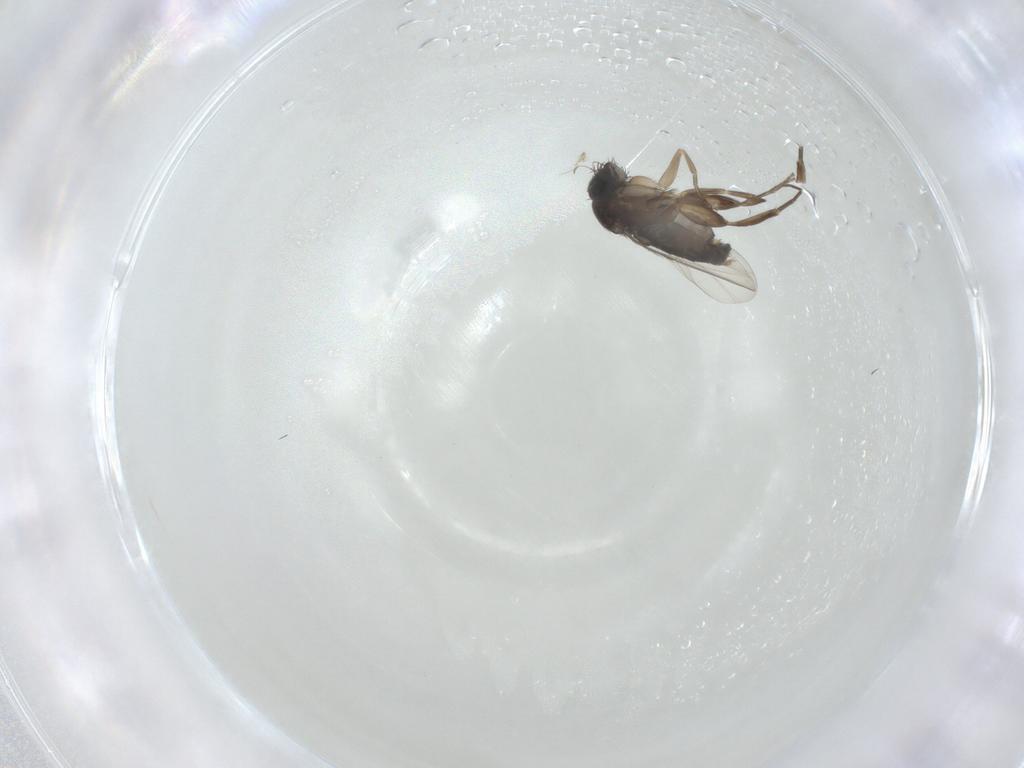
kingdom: Animalia
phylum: Arthropoda
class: Insecta
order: Diptera
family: Phoridae
